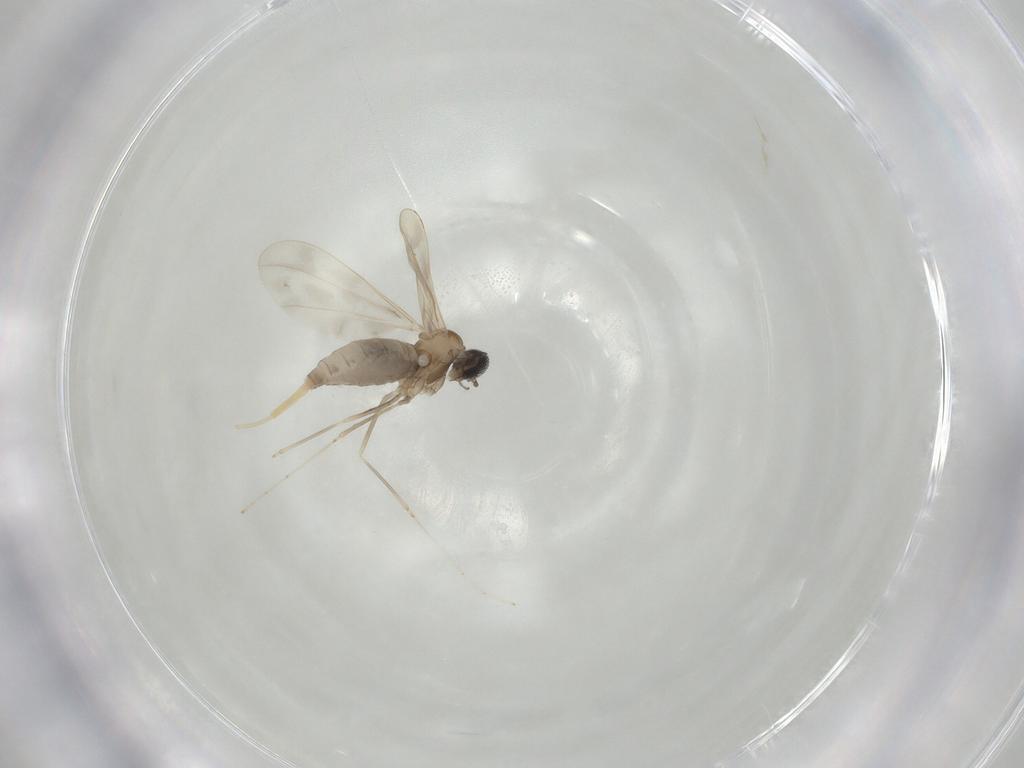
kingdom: Animalia
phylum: Arthropoda
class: Insecta
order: Diptera
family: Cecidomyiidae
